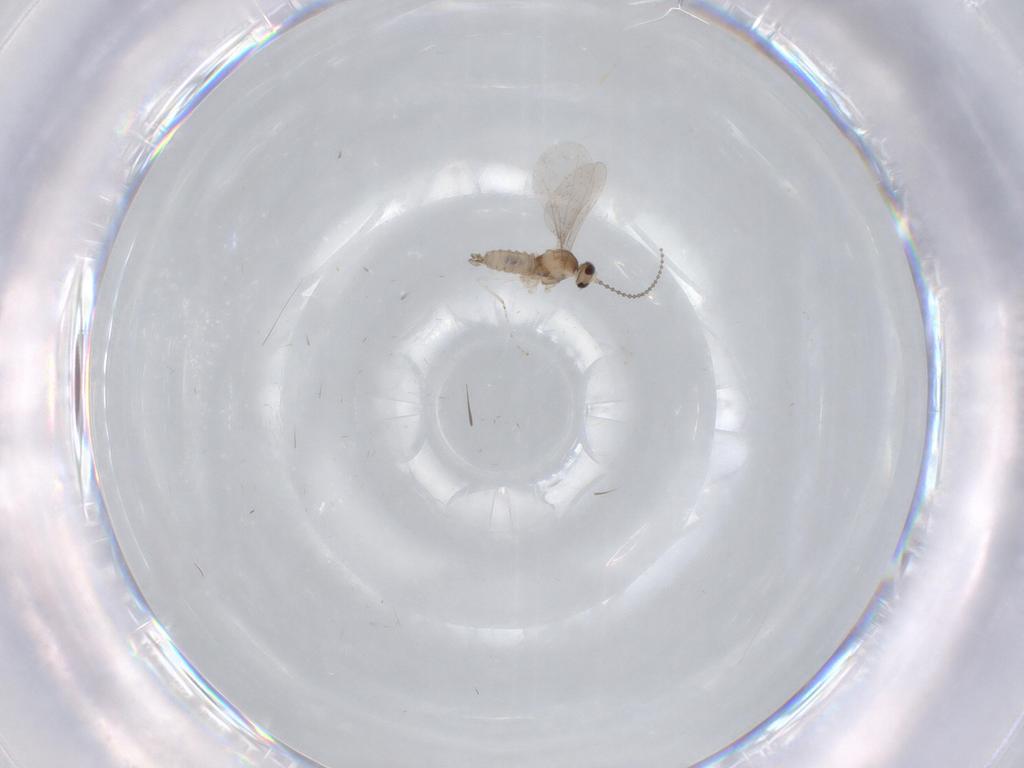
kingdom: Animalia
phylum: Arthropoda
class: Insecta
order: Diptera
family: Cecidomyiidae
